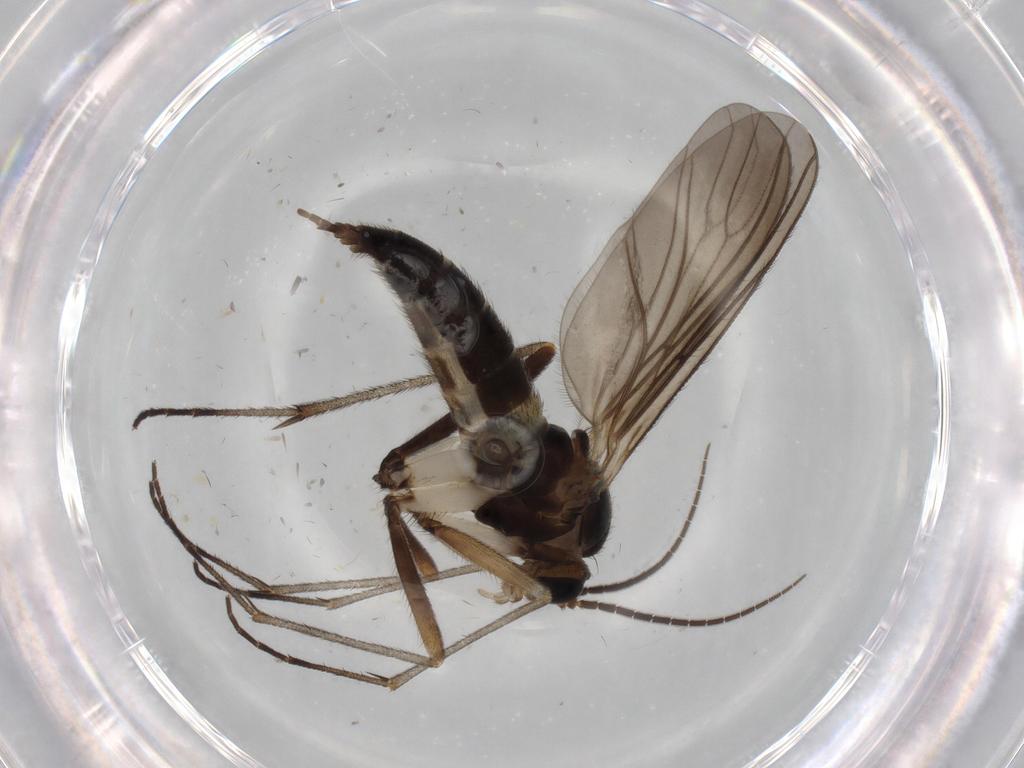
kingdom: Animalia
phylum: Arthropoda
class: Insecta
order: Diptera
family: Sciaridae
